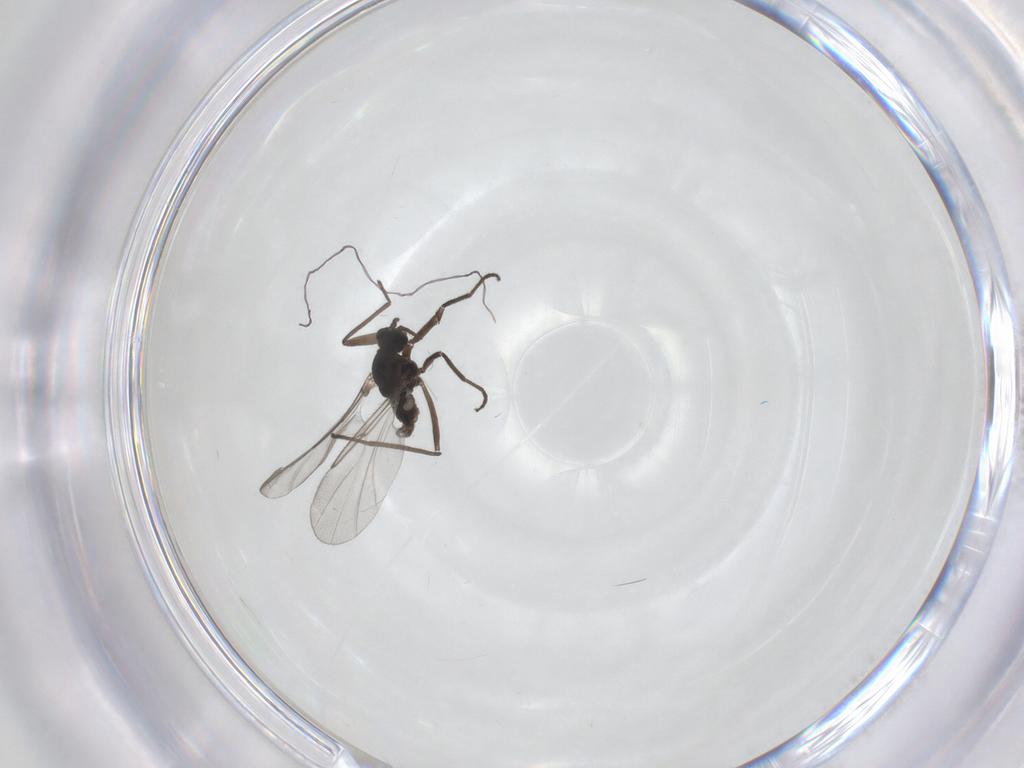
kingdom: Animalia
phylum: Arthropoda
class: Insecta
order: Diptera
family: Cecidomyiidae
